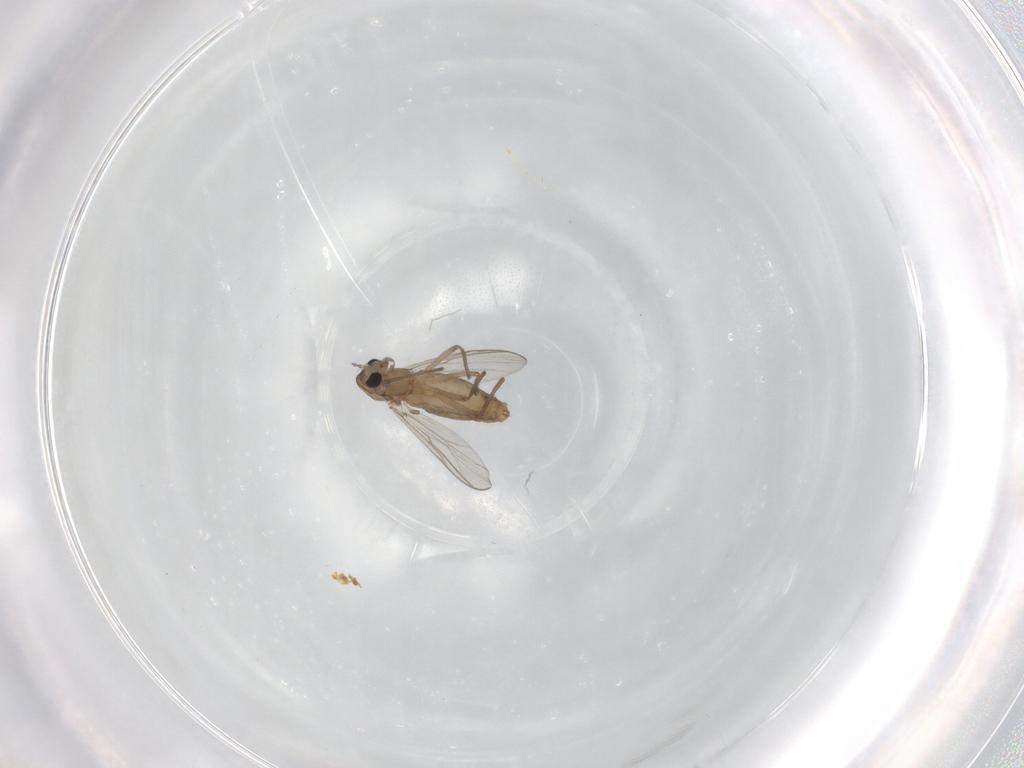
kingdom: Animalia
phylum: Arthropoda
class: Insecta
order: Diptera
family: Chironomidae
